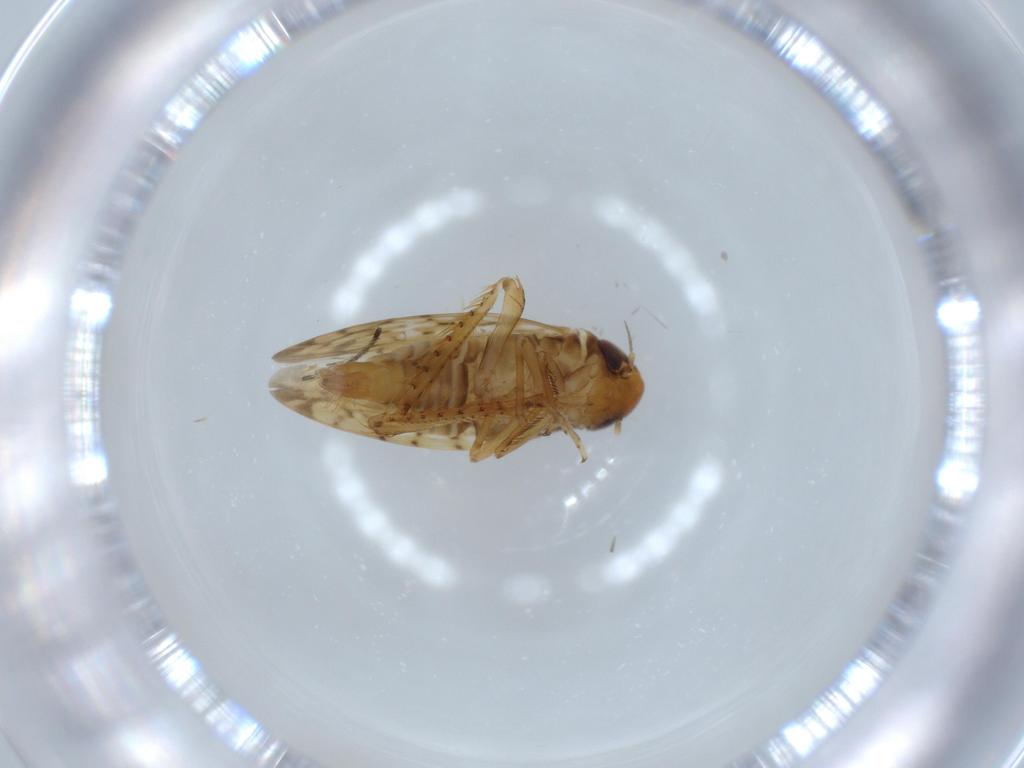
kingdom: Animalia
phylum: Arthropoda
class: Insecta
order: Hemiptera
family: Cicadellidae
